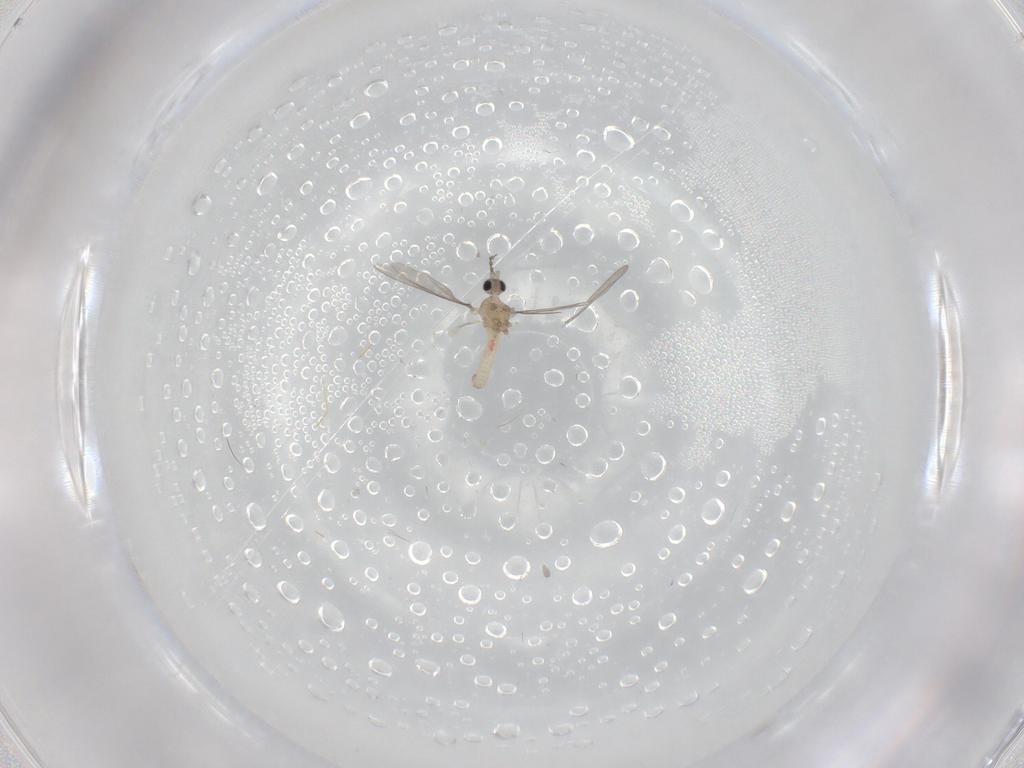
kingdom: Animalia
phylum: Arthropoda
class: Insecta
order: Diptera
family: Cecidomyiidae
